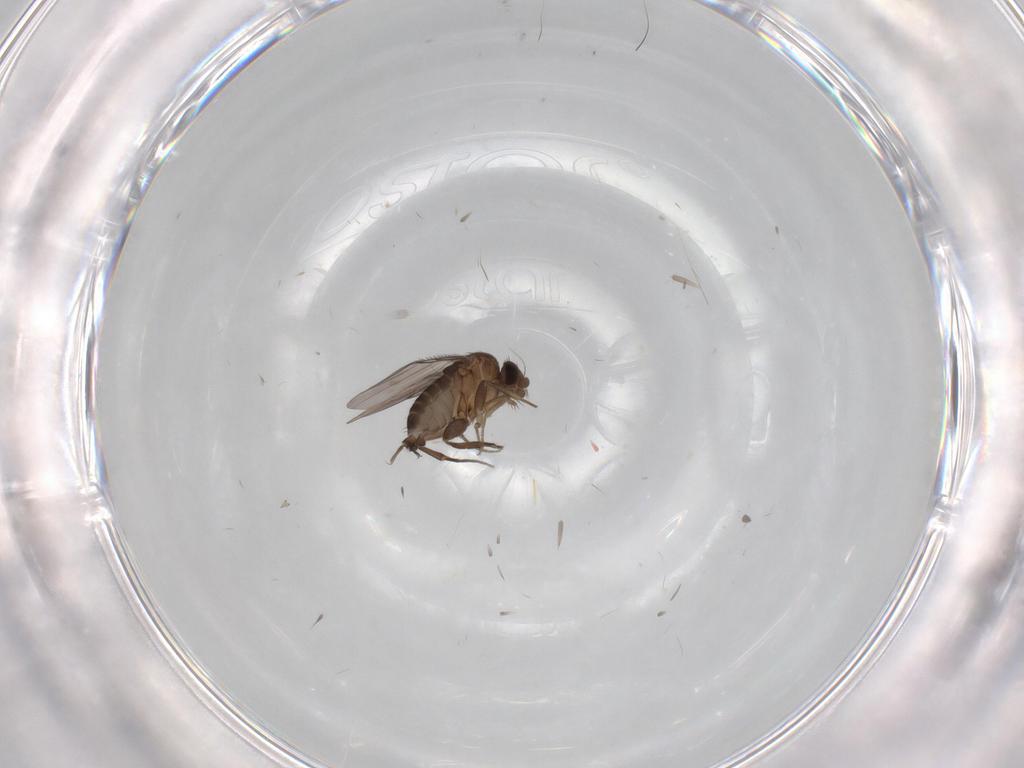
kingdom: Animalia
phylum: Arthropoda
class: Insecta
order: Diptera
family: Phoridae
